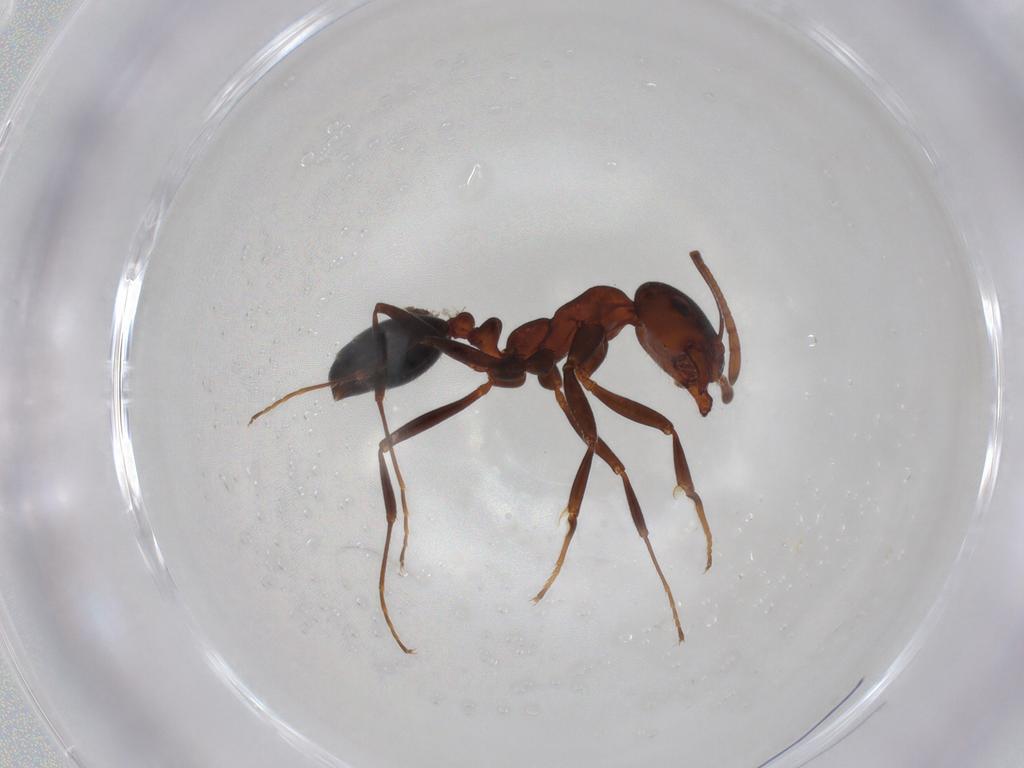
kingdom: Animalia
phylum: Arthropoda
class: Insecta
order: Hymenoptera
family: Formicidae
